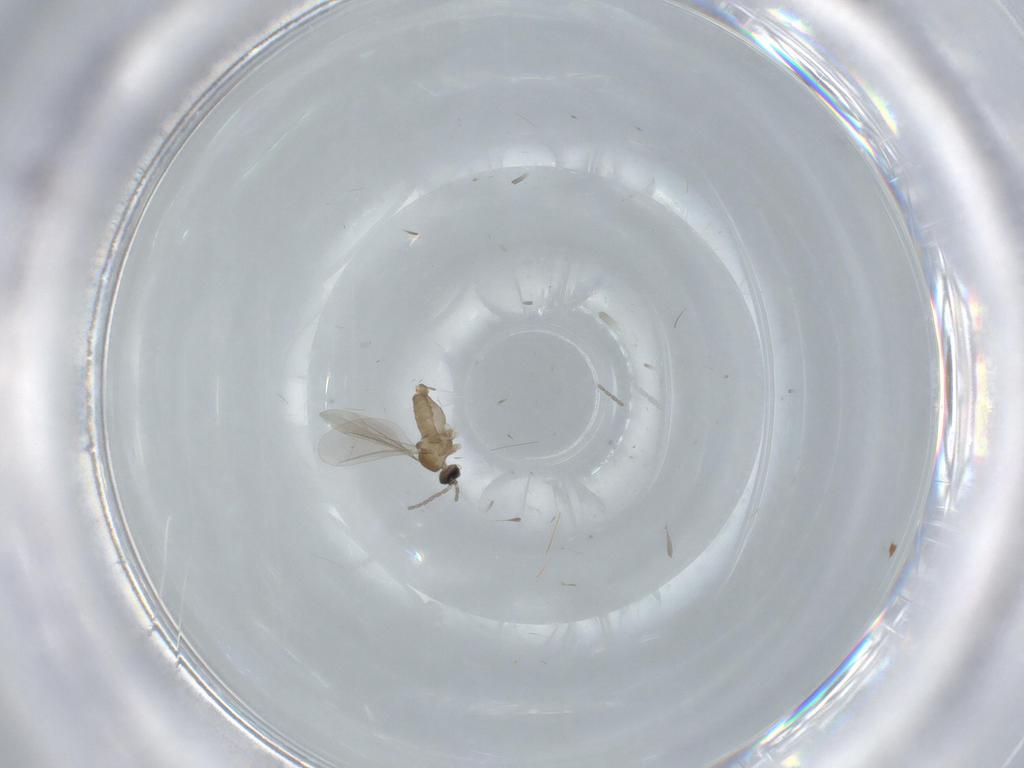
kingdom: Animalia
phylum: Arthropoda
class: Insecta
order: Diptera
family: Cecidomyiidae
